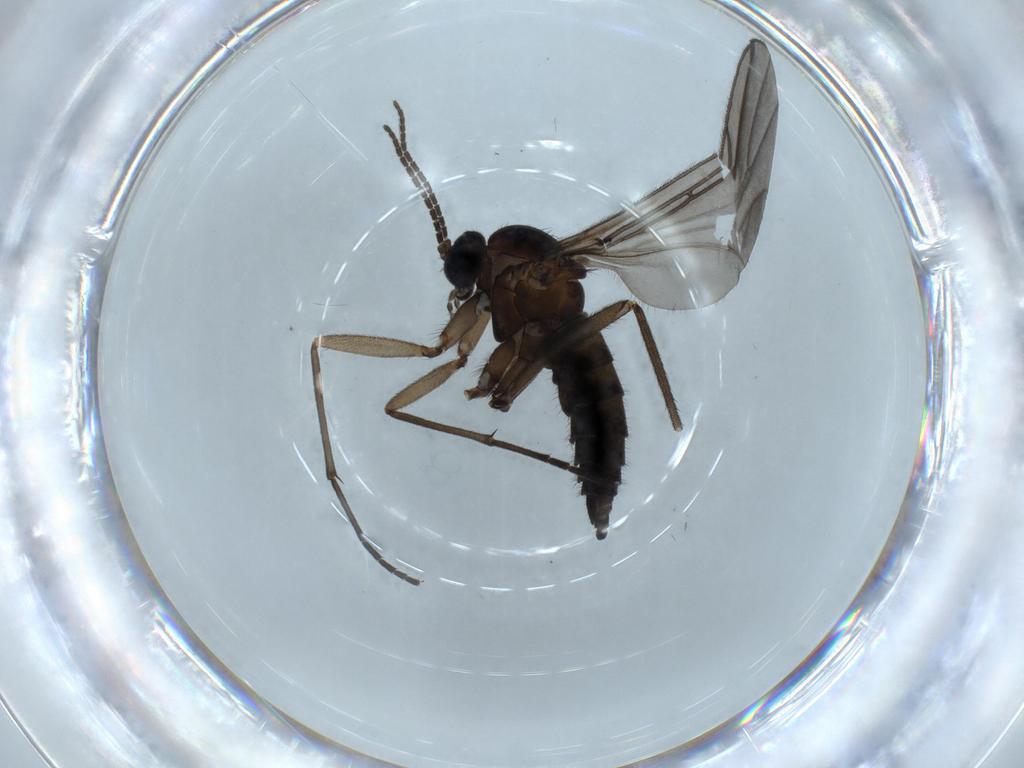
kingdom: Animalia
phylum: Arthropoda
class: Insecta
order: Diptera
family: Sciaridae
